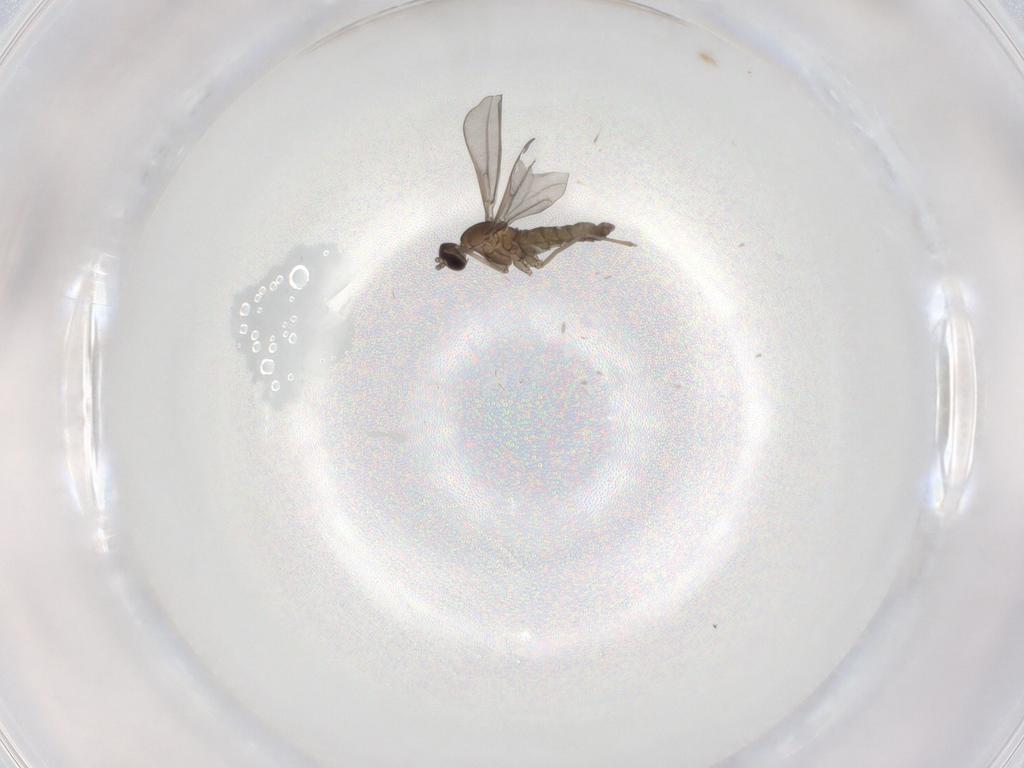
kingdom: Animalia
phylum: Arthropoda
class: Insecta
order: Diptera
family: Cecidomyiidae
